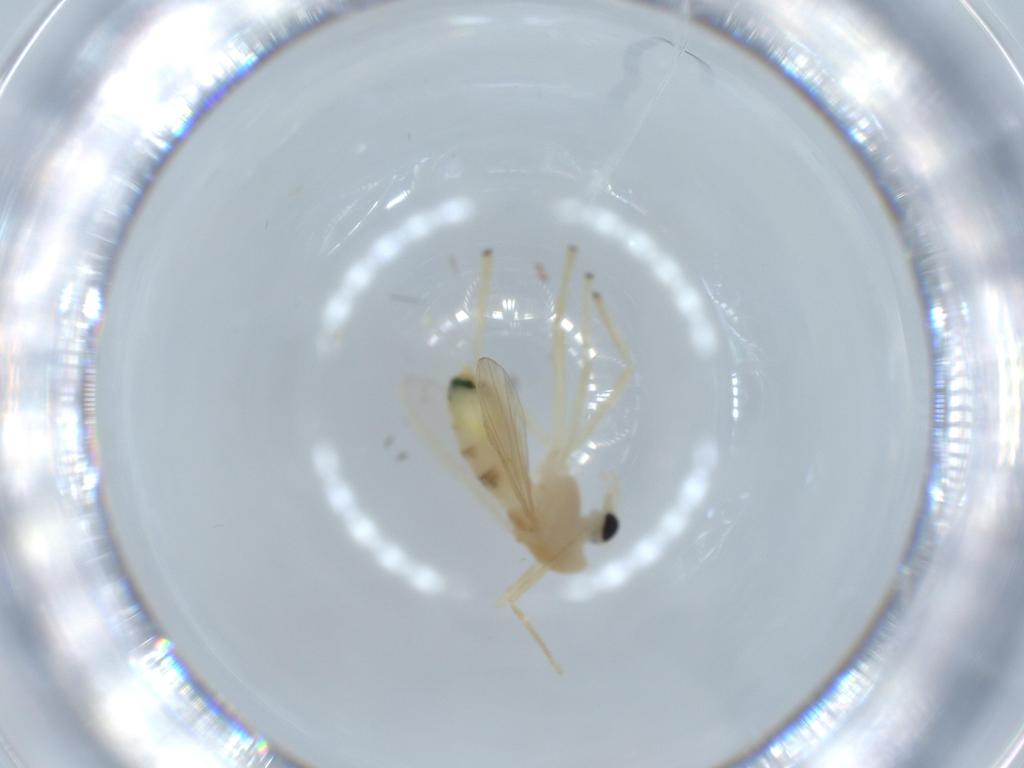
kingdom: Animalia
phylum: Arthropoda
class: Insecta
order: Diptera
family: Chironomidae
